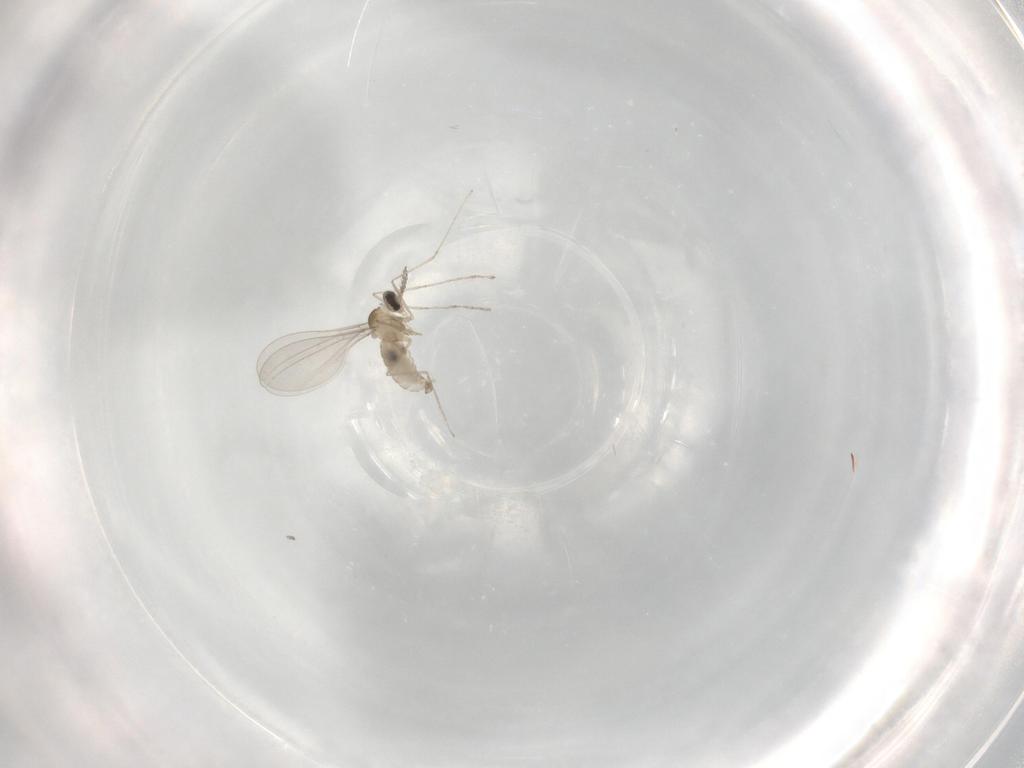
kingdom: Animalia
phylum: Arthropoda
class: Insecta
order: Diptera
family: Cecidomyiidae
